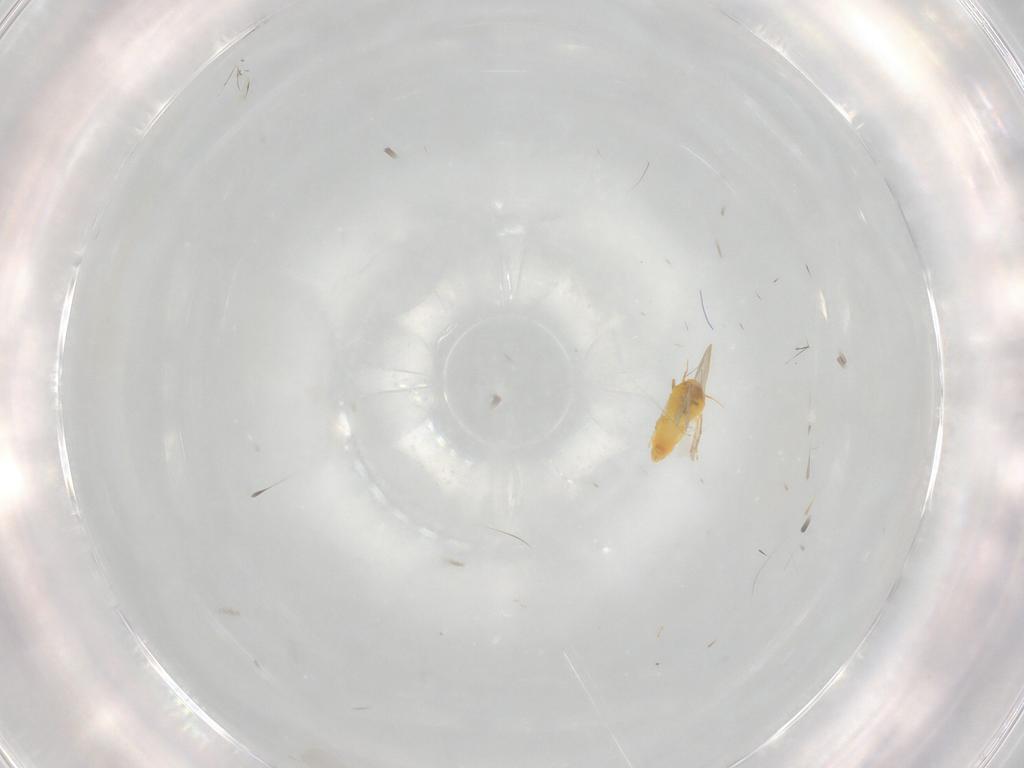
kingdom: Animalia
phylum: Arthropoda
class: Insecta
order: Hemiptera
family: Aleyrodidae
